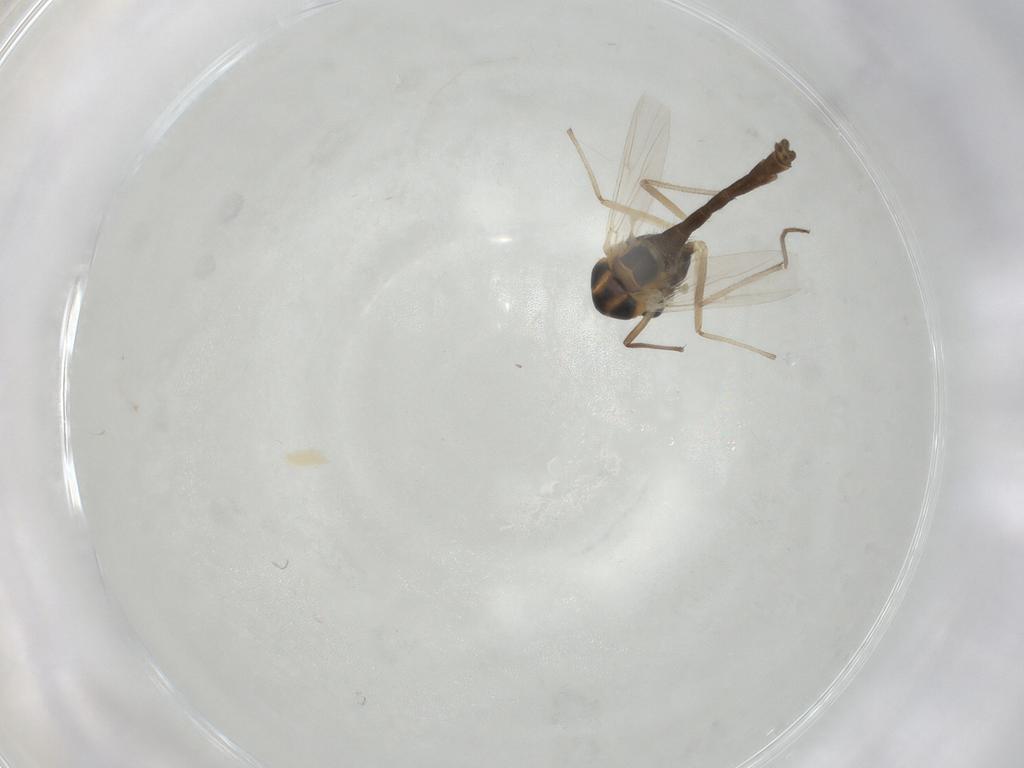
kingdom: Animalia
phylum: Arthropoda
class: Insecta
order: Diptera
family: Chironomidae
